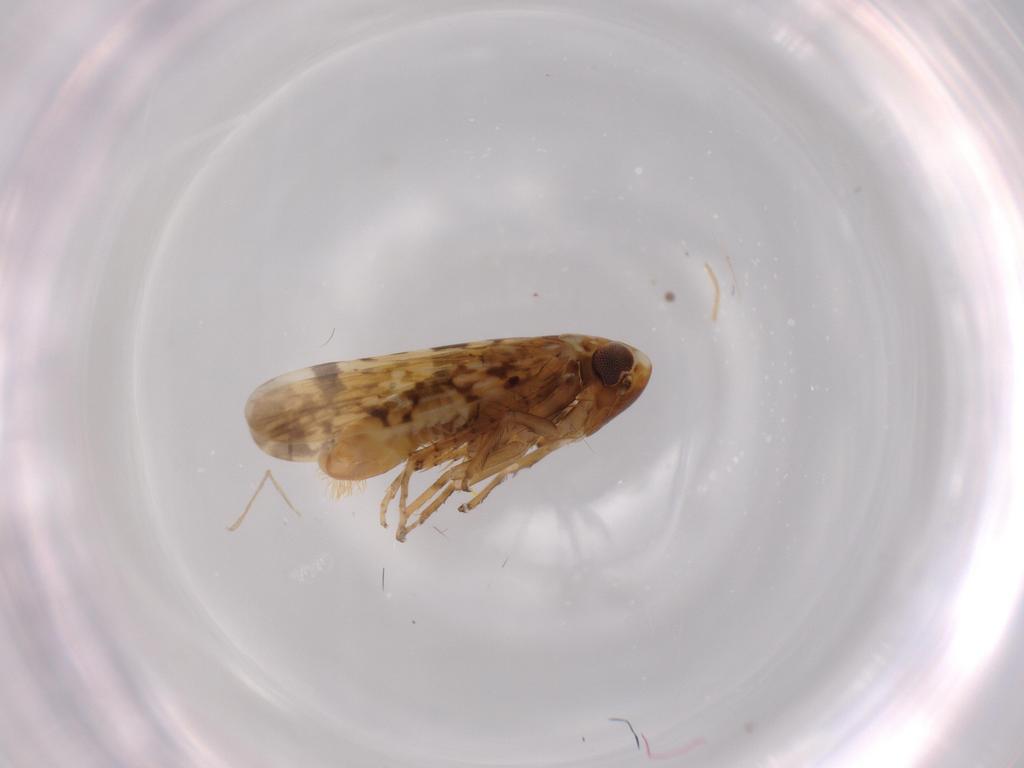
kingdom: Animalia
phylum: Arthropoda
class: Insecta
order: Hemiptera
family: Cicadellidae
